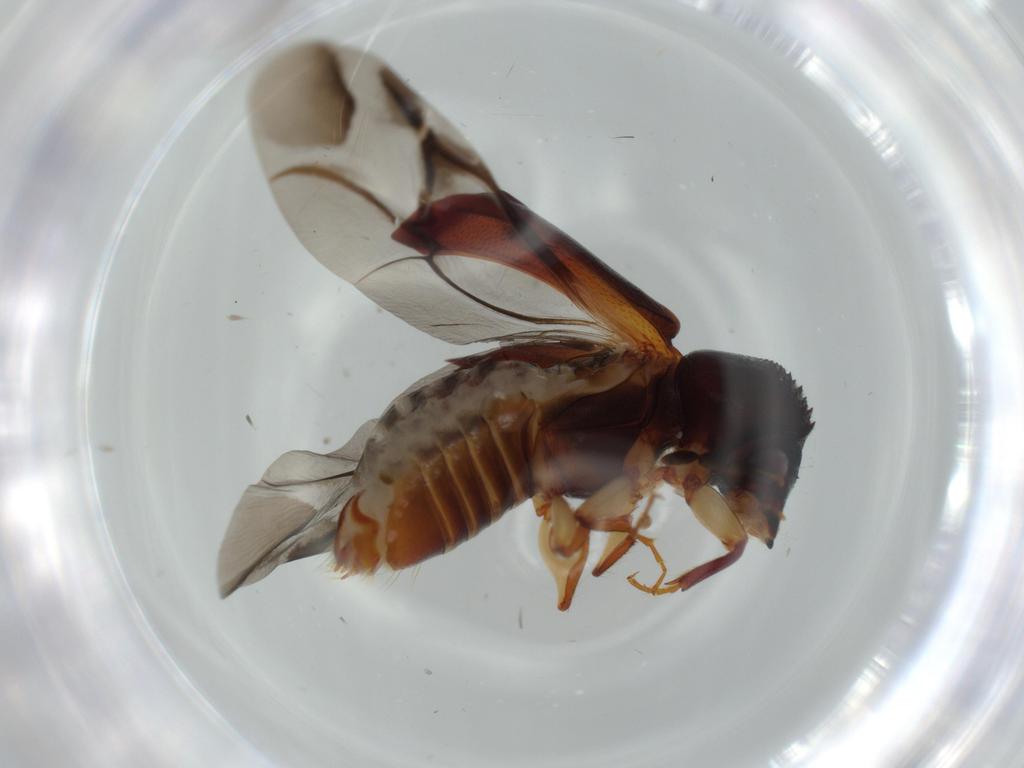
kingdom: Animalia
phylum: Arthropoda
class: Insecta
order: Coleoptera
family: Bostrichidae
